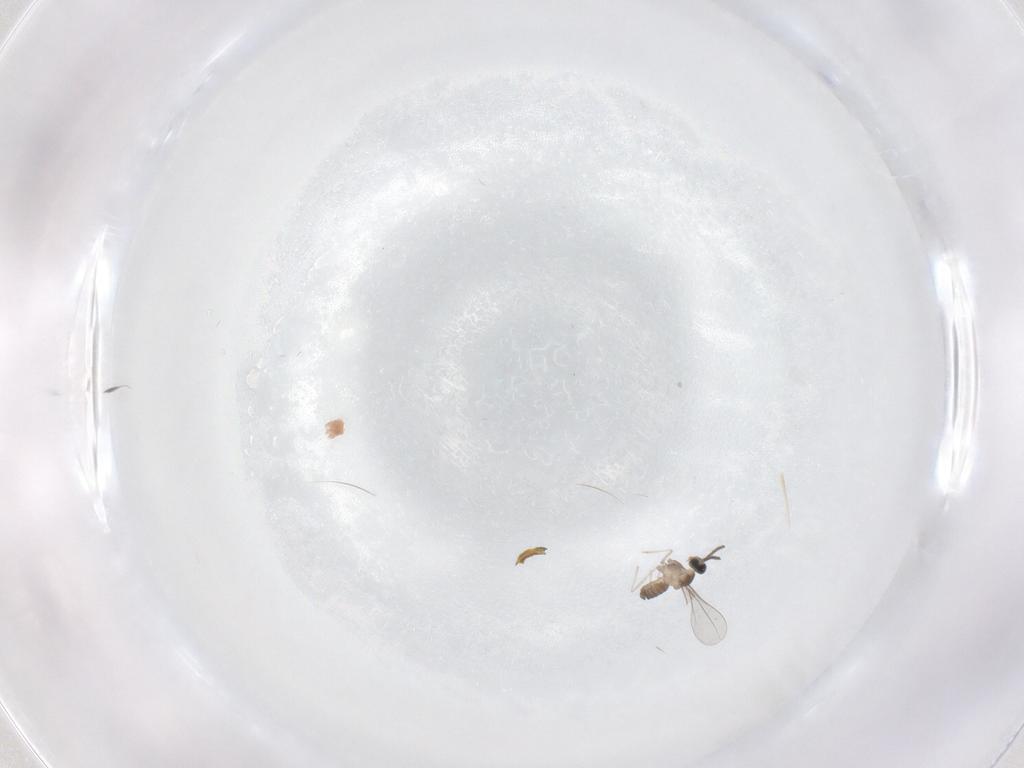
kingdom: Animalia
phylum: Arthropoda
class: Insecta
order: Diptera
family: Cecidomyiidae
